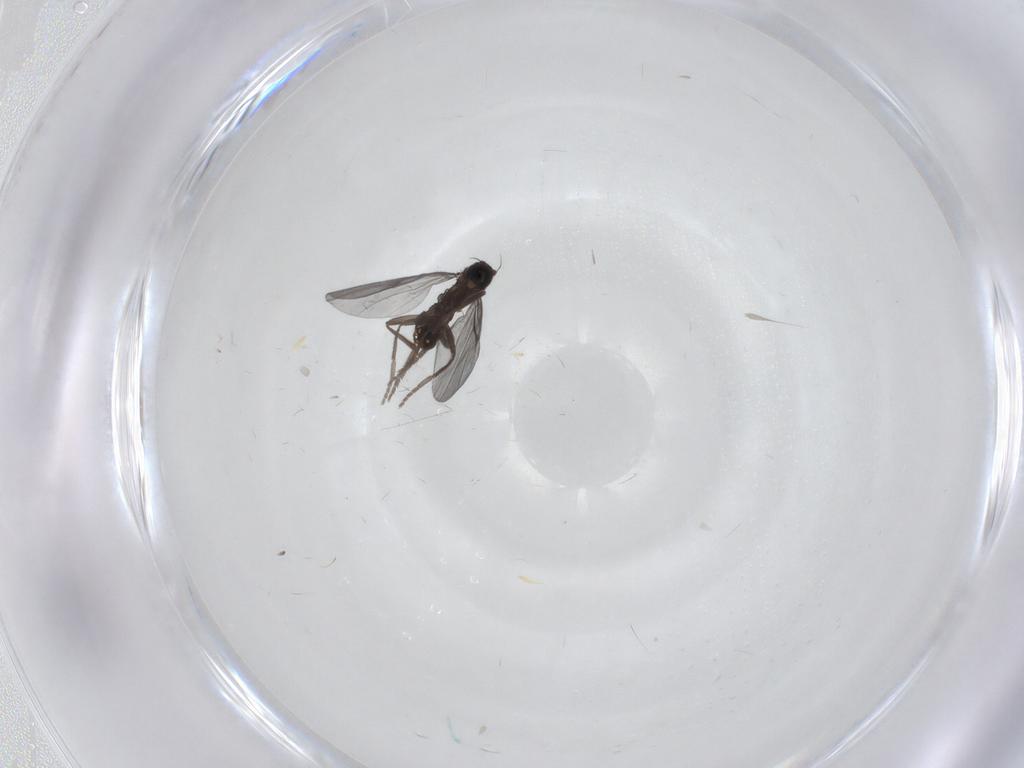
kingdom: Animalia
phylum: Arthropoda
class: Insecta
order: Diptera
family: Phoridae
